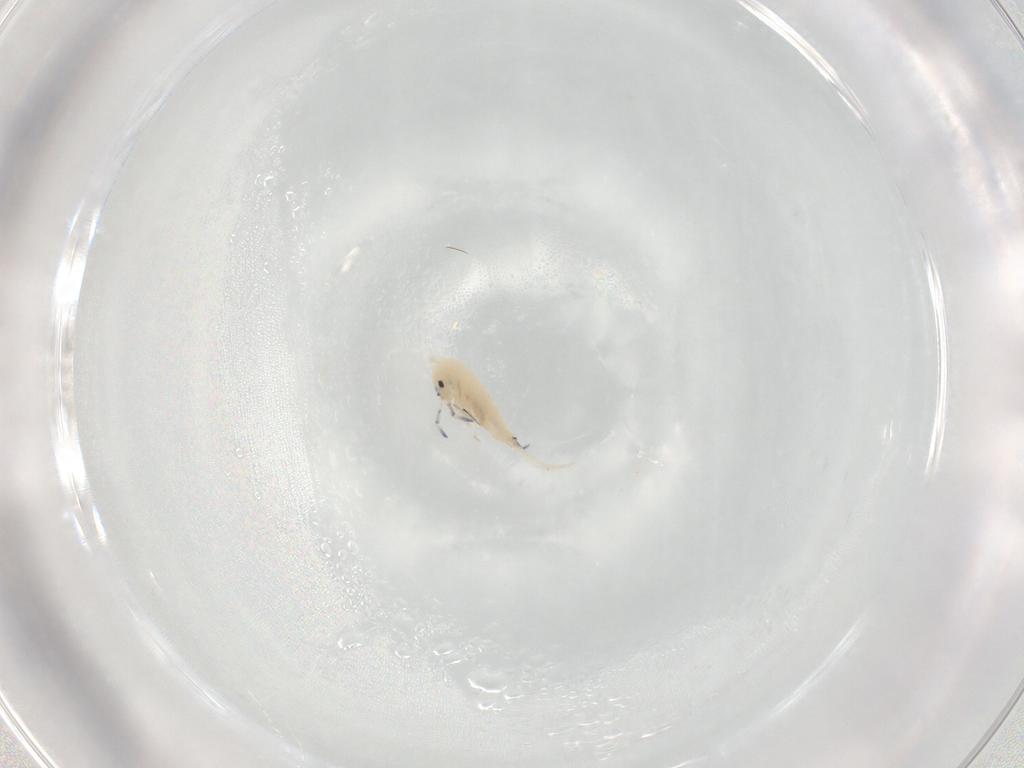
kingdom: Animalia
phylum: Arthropoda
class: Collembola
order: Entomobryomorpha
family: Entomobryidae
